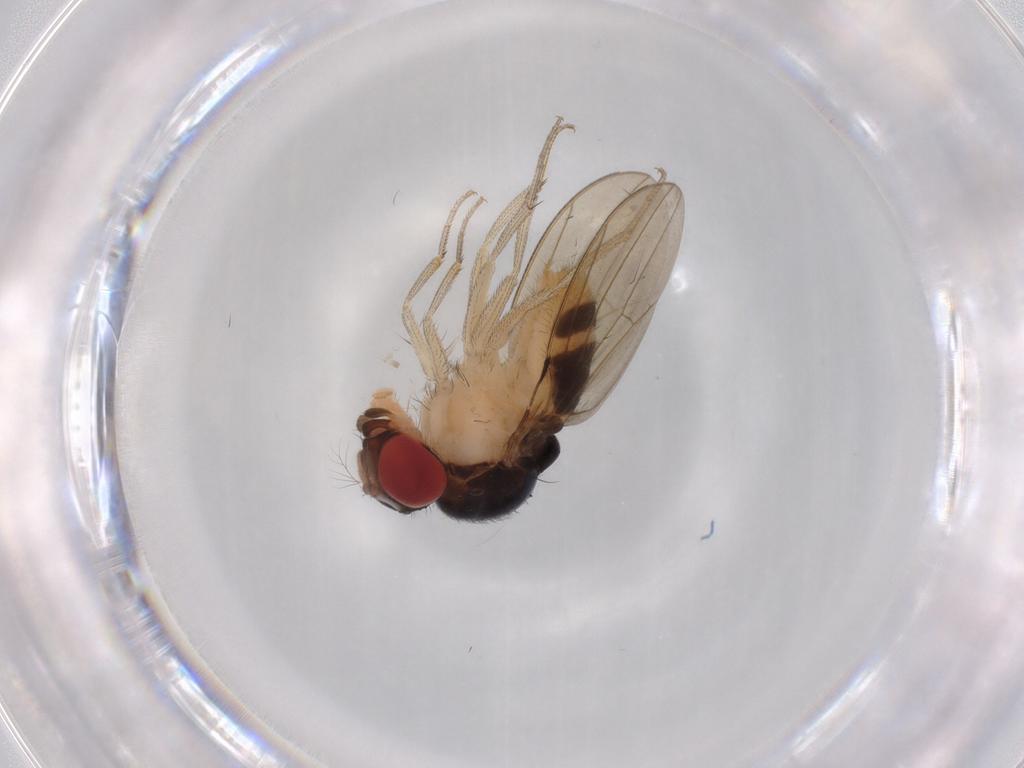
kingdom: Animalia
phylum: Arthropoda
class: Insecta
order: Diptera
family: Drosophilidae
